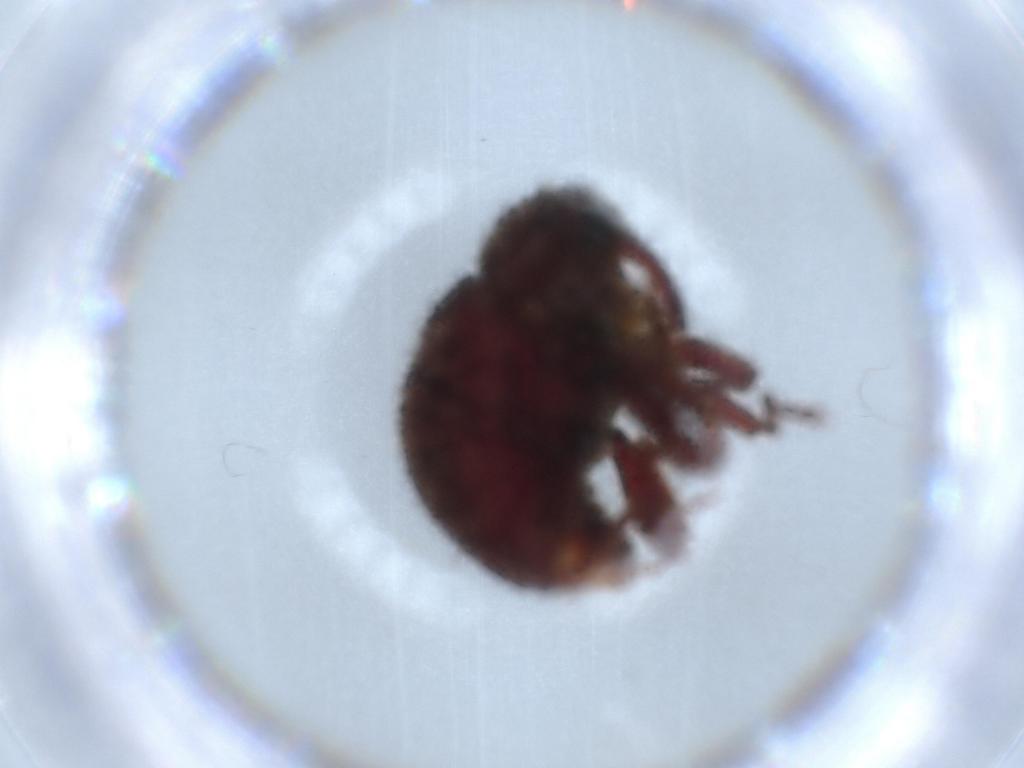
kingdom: Animalia
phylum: Arthropoda
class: Insecta
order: Coleoptera
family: Curculionidae
